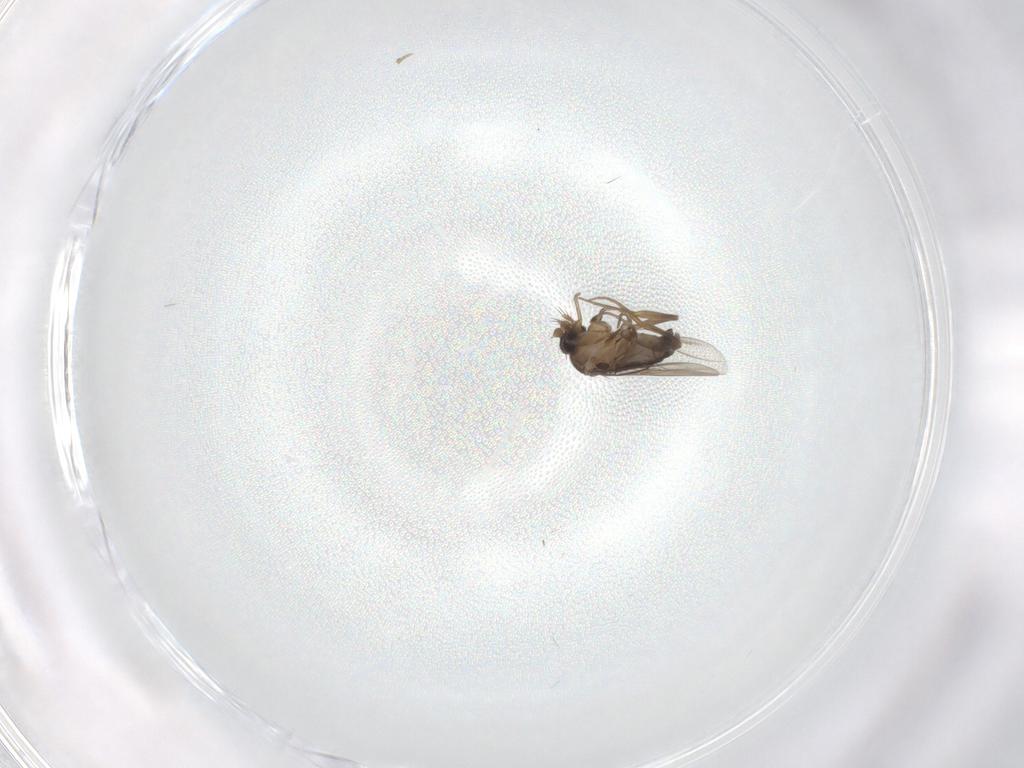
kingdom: Animalia
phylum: Arthropoda
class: Insecta
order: Diptera
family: Phoridae
